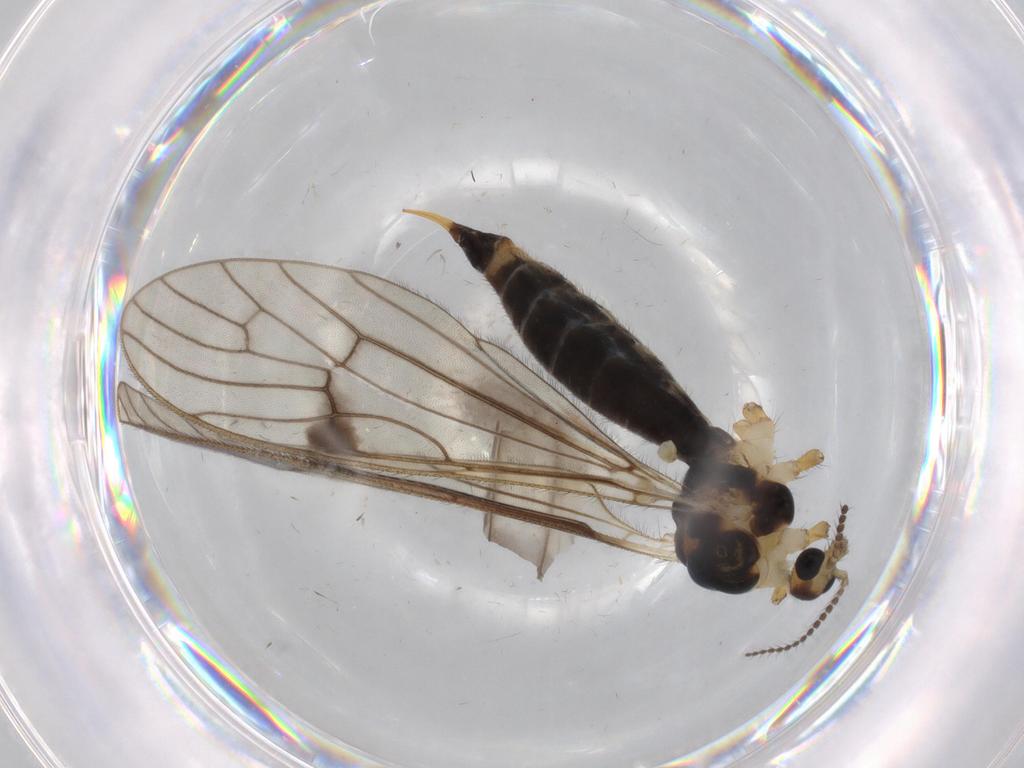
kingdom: Animalia
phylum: Arthropoda
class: Insecta
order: Diptera
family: Limoniidae
